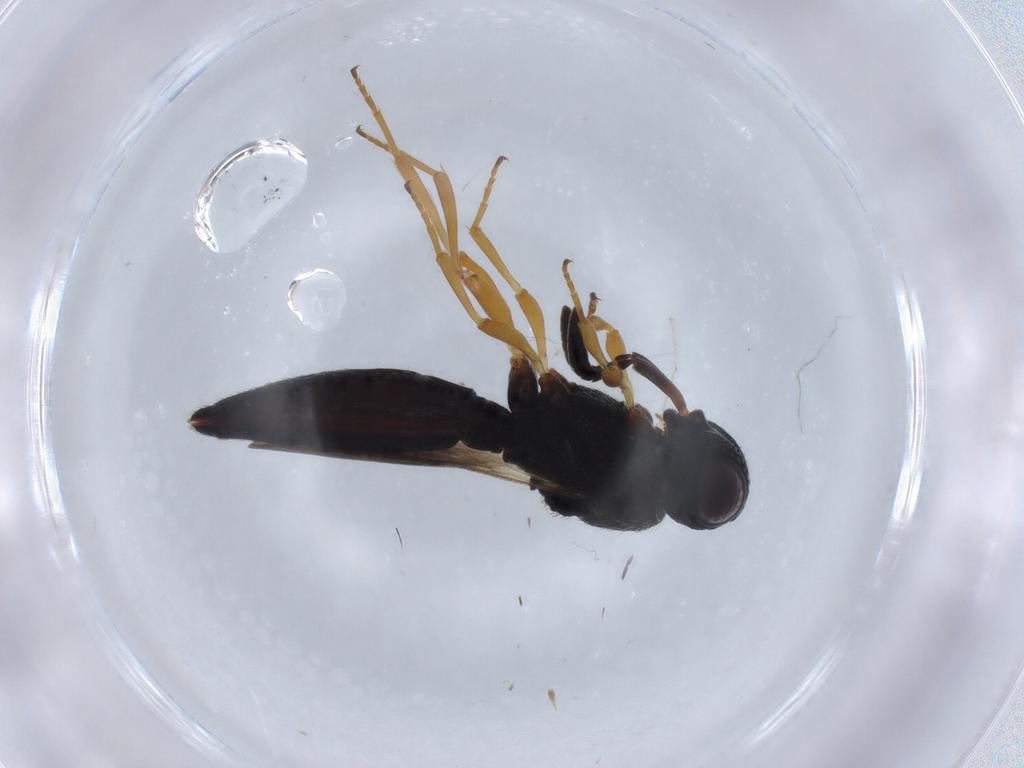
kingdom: Animalia
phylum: Arthropoda
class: Insecta
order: Hymenoptera
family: Scelionidae
